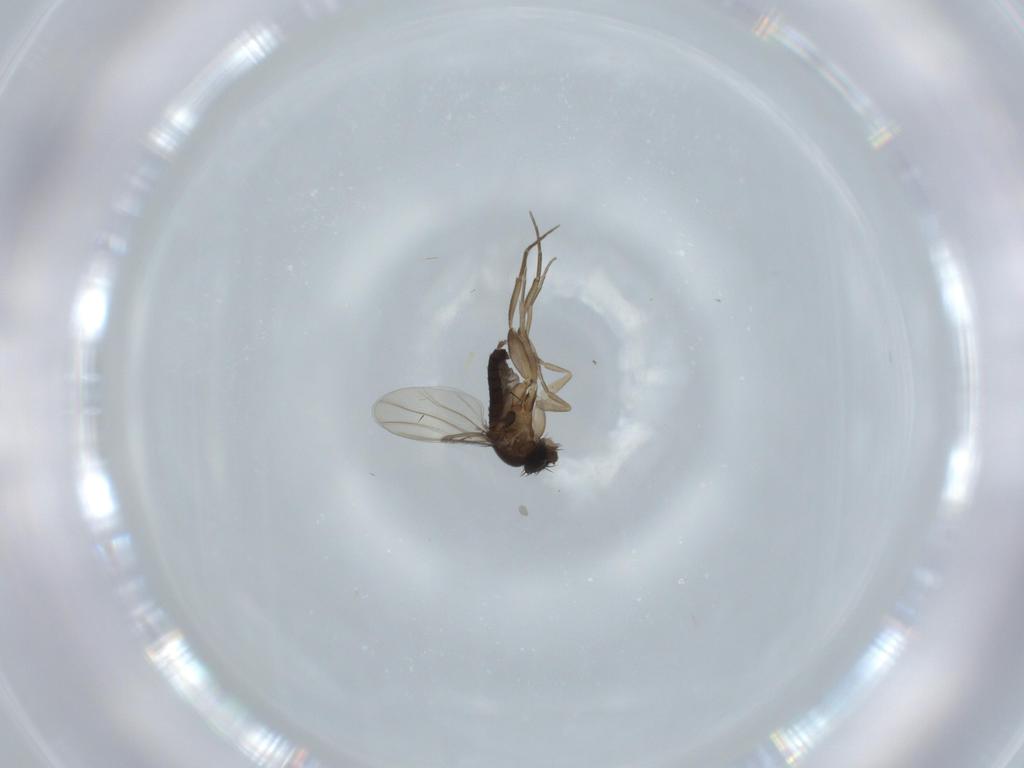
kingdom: Animalia
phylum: Arthropoda
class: Insecta
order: Diptera
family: Phoridae
